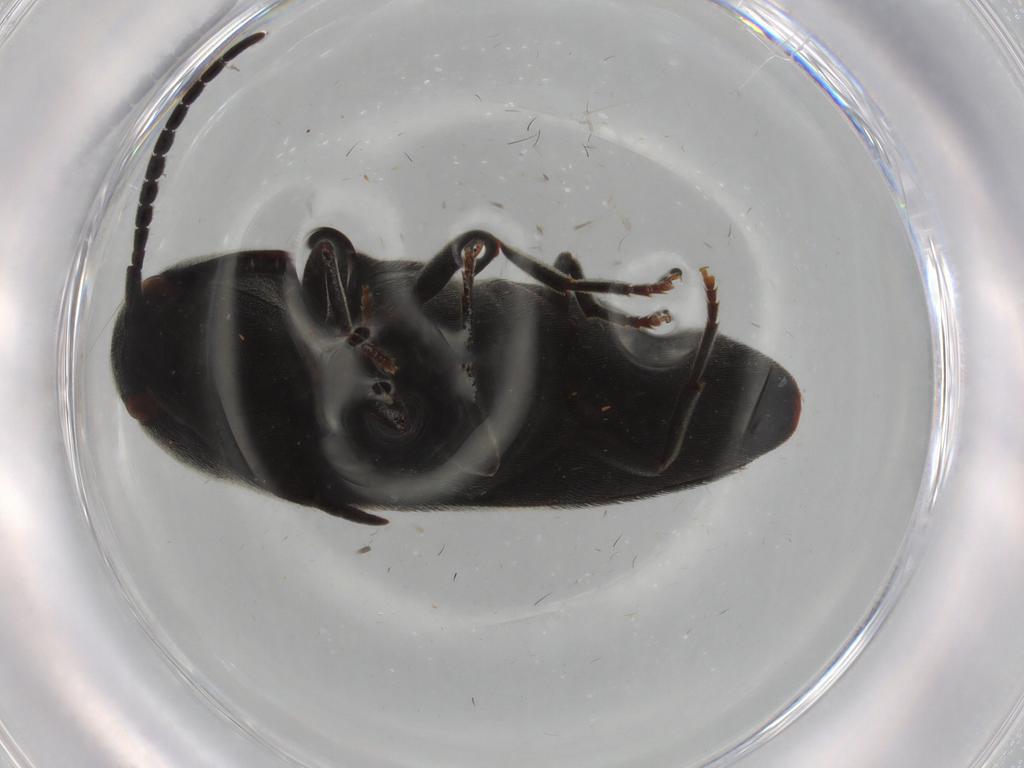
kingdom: Animalia
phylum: Arthropoda
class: Insecta
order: Coleoptera
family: Eucnemidae
